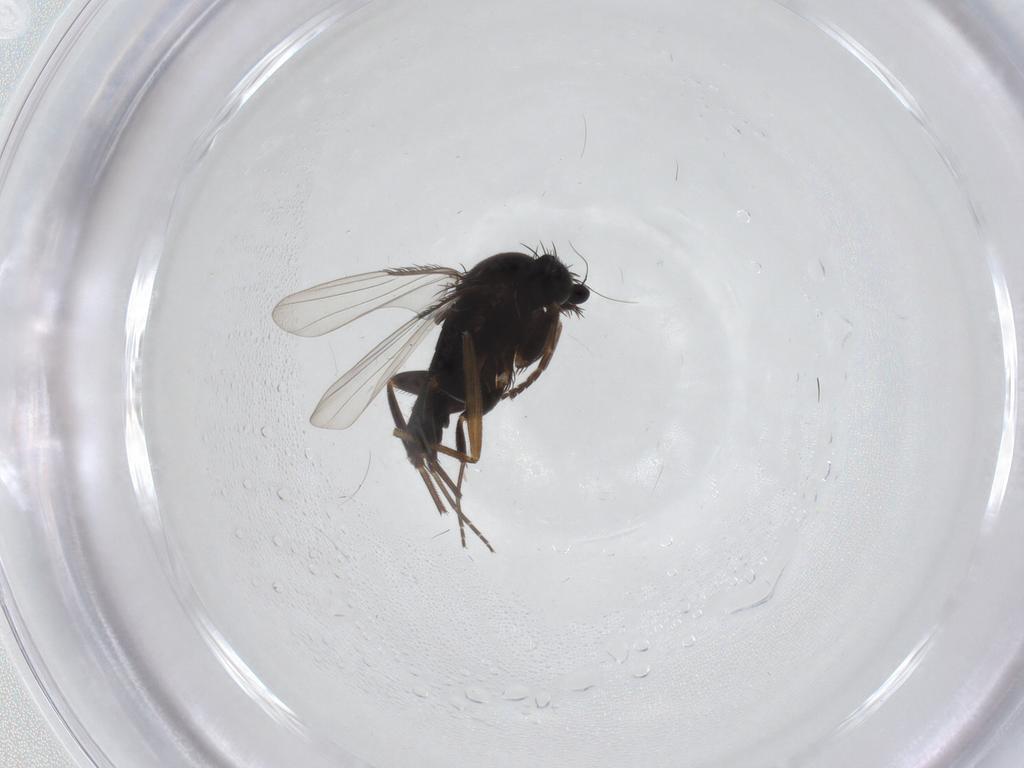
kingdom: Animalia
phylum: Arthropoda
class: Insecta
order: Diptera
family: Sciaridae
